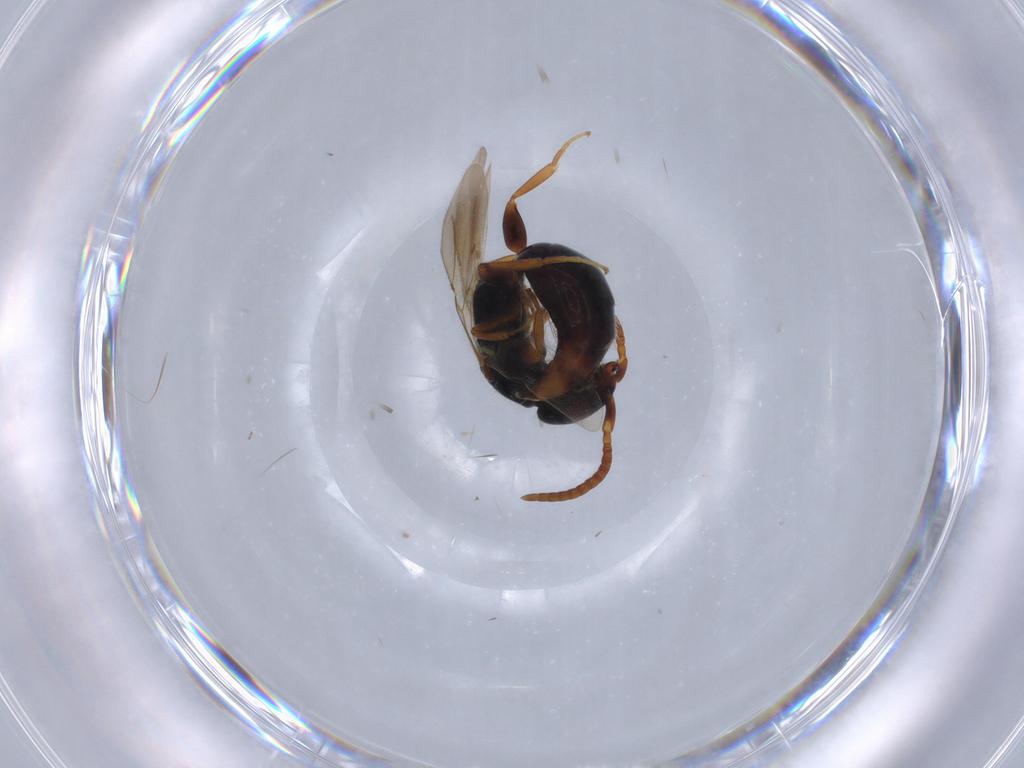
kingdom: Animalia
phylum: Arthropoda
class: Insecta
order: Hymenoptera
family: Bethylidae
